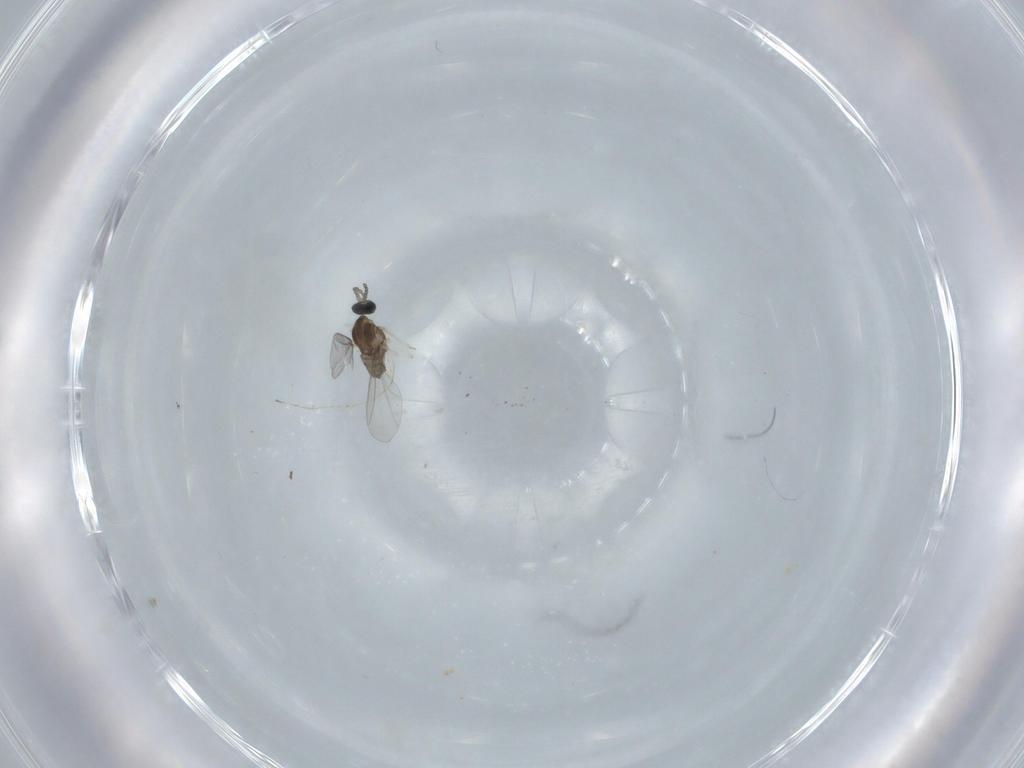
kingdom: Animalia
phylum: Arthropoda
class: Insecta
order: Diptera
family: Cecidomyiidae
